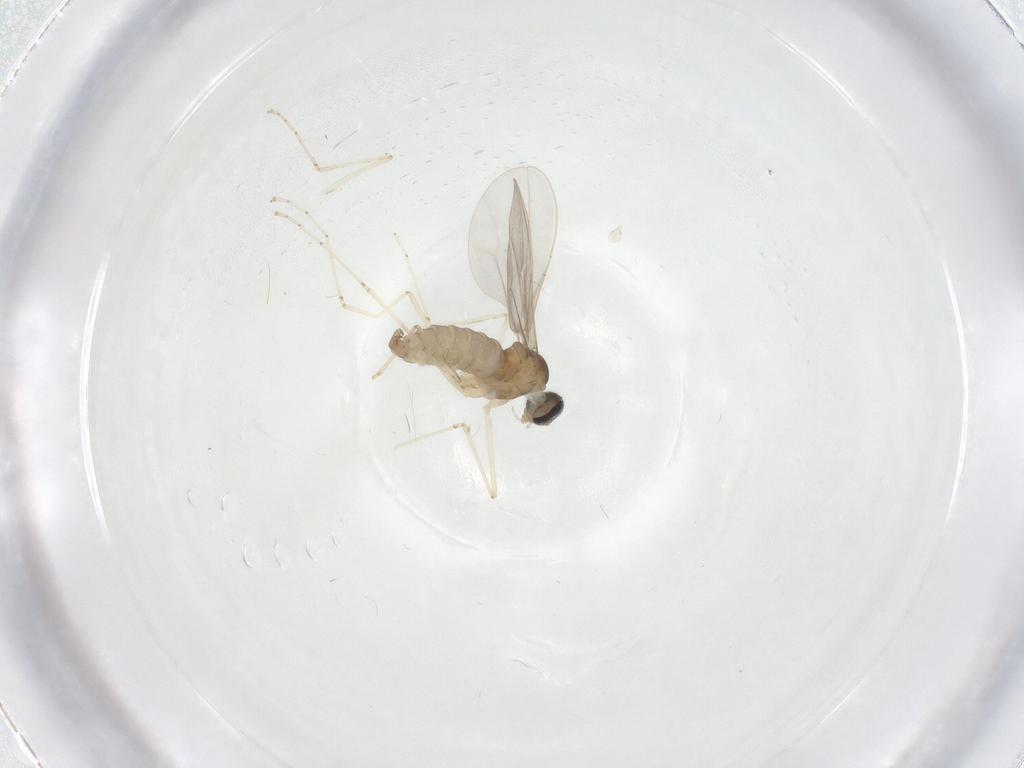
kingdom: Animalia
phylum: Arthropoda
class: Insecta
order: Diptera
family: Cecidomyiidae
